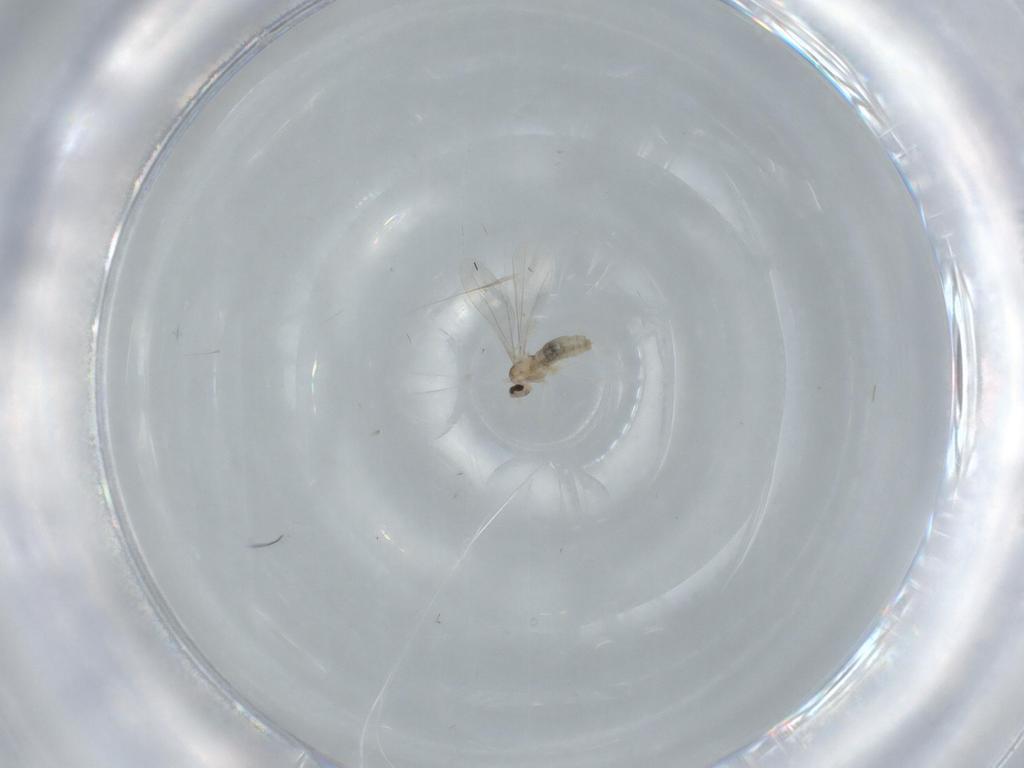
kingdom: Animalia
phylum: Arthropoda
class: Insecta
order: Diptera
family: Cecidomyiidae
